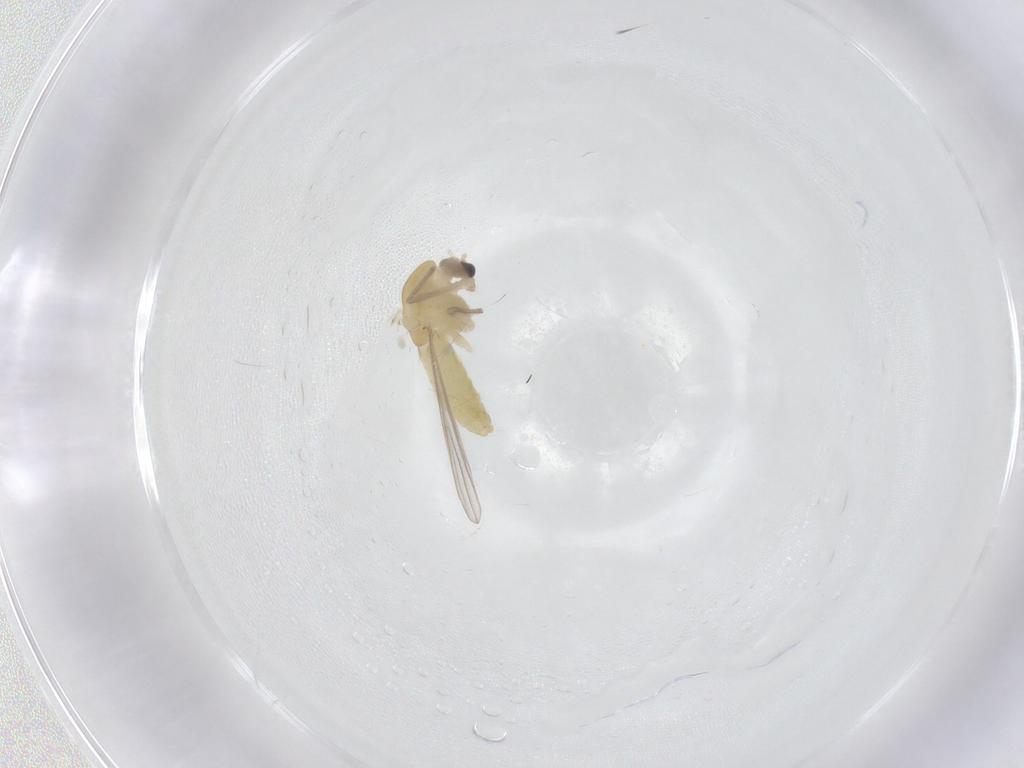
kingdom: Animalia
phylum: Arthropoda
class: Insecta
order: Diptera
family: Chironomidae
